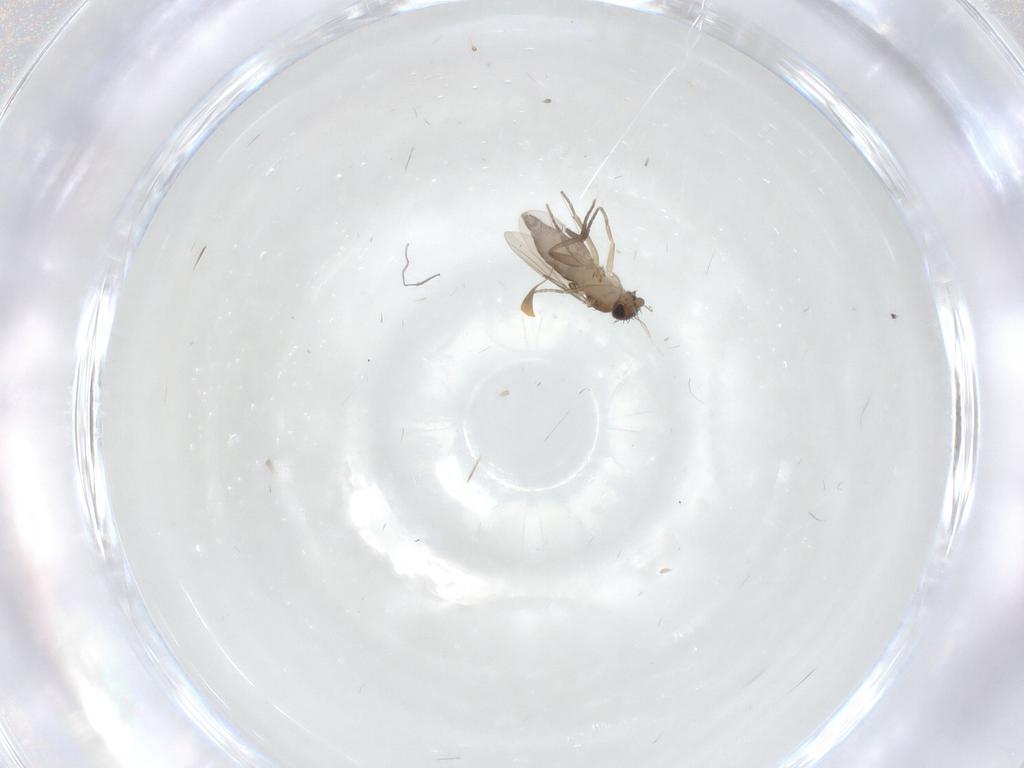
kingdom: Animalia
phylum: Arthropoda
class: Insecta
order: Diptera
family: Phoridae
